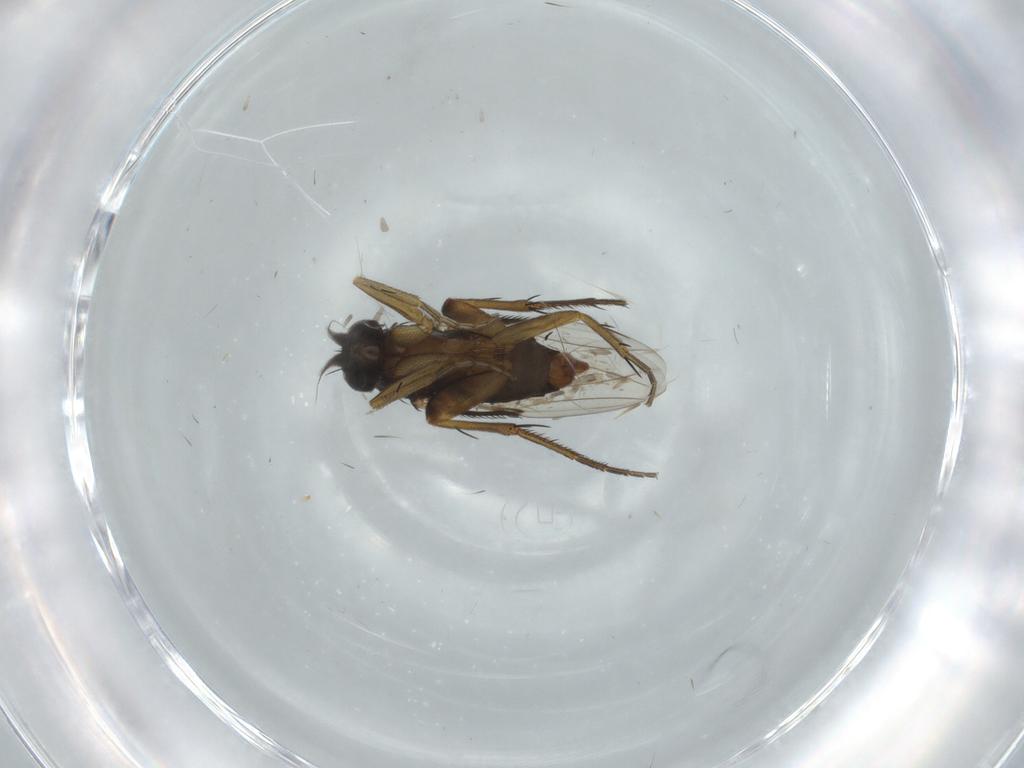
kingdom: Animalia
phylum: Arthropoda
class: Insecta
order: Diptera
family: Phoridae
